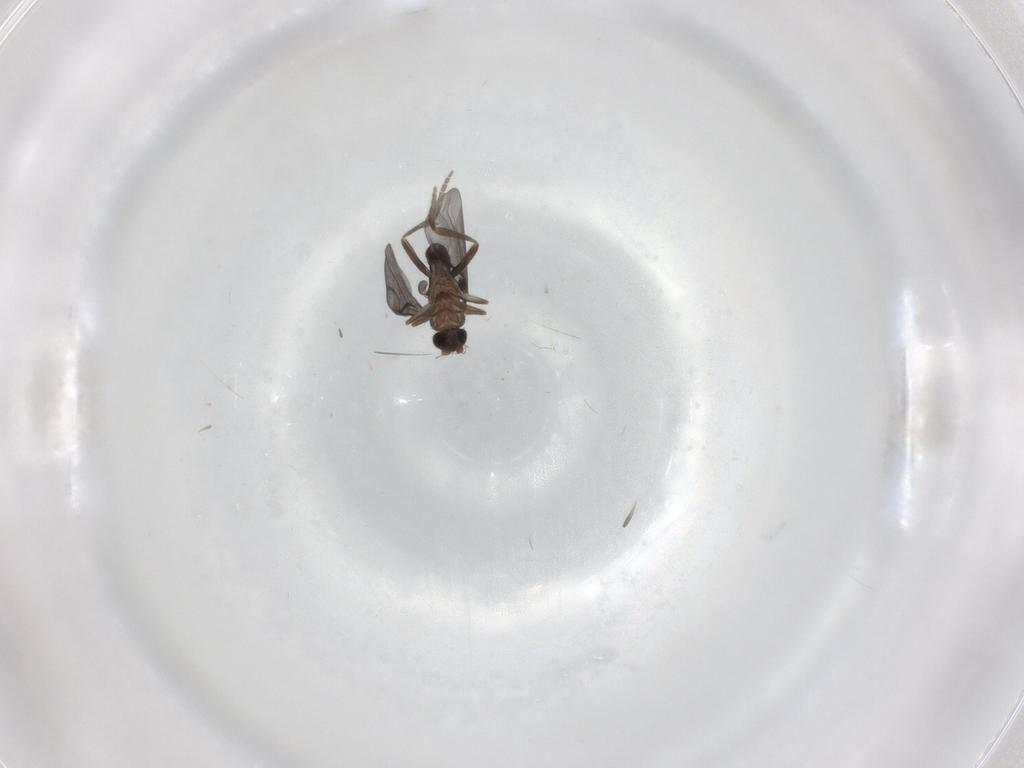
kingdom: Animalia
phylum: Arthropoda
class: Insecta
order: Diptera
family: Phoridae
